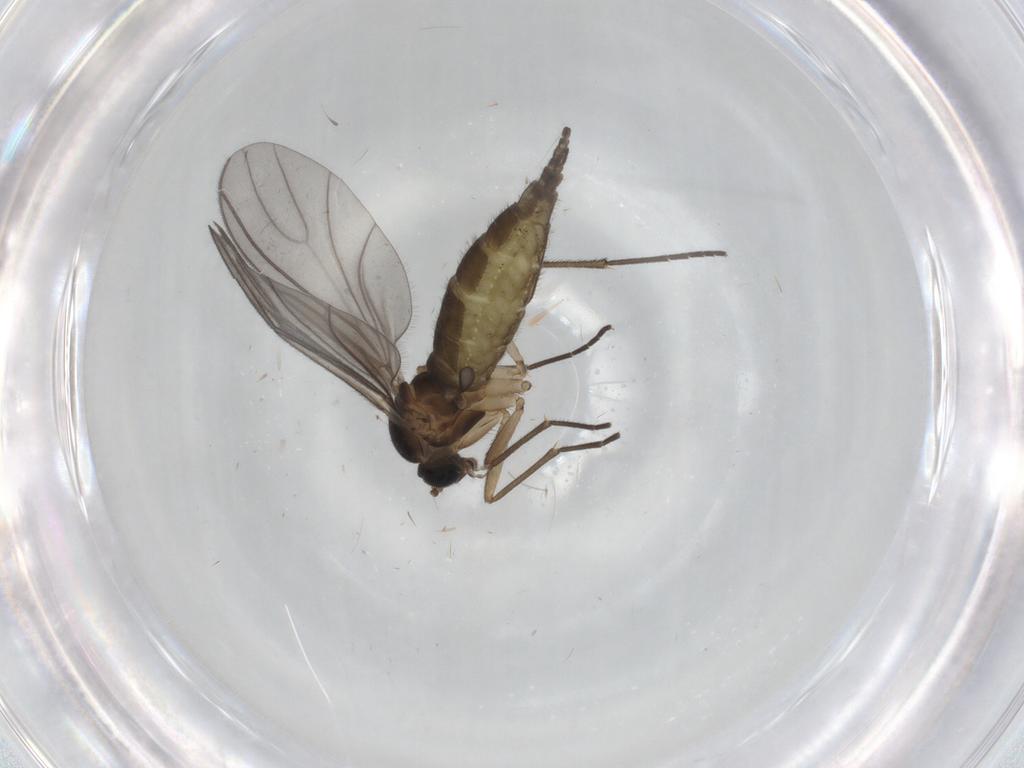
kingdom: Animalia
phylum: Arthropoda
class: Insecta
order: Diptera
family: Sciaridae
